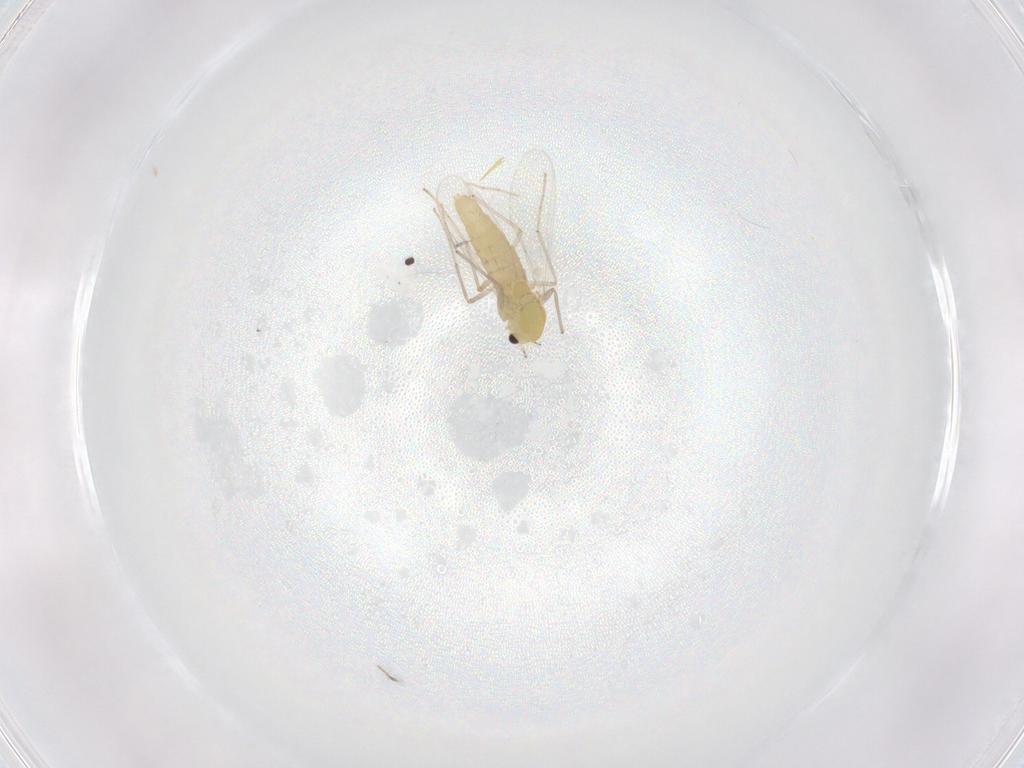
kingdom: Animalia
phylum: Arthropoda
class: Insecta
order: Diptera
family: Chironomidae
